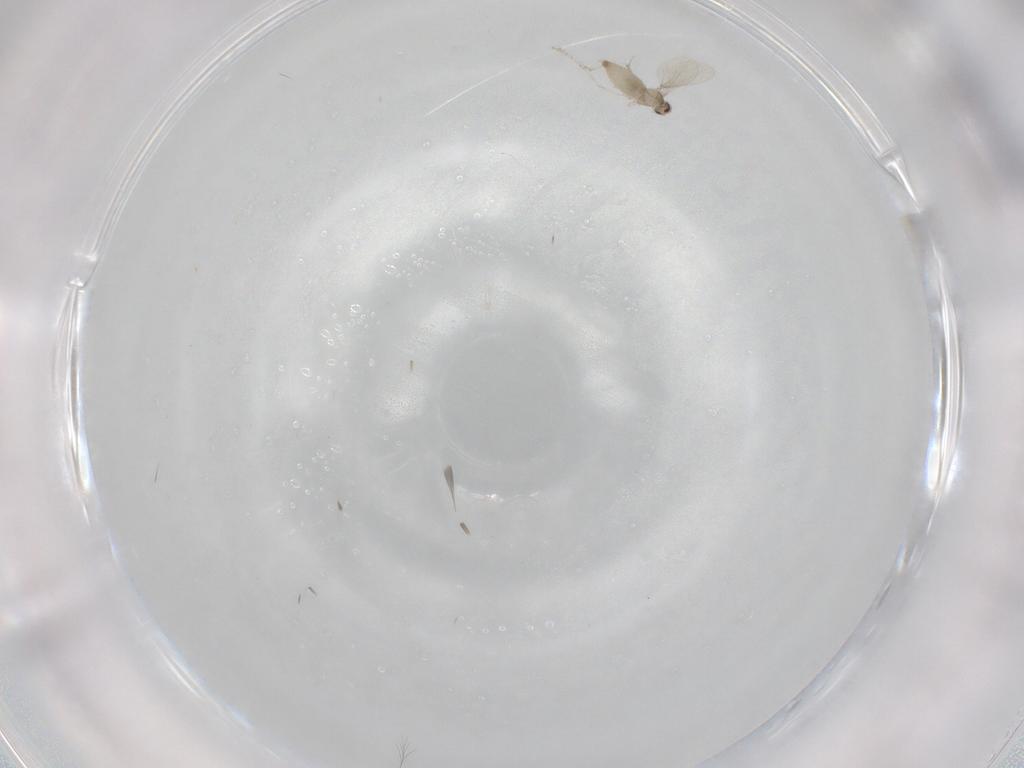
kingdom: Animalia
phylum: Arthropoda
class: Insecta
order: Diptera
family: Cecidomyiidae
